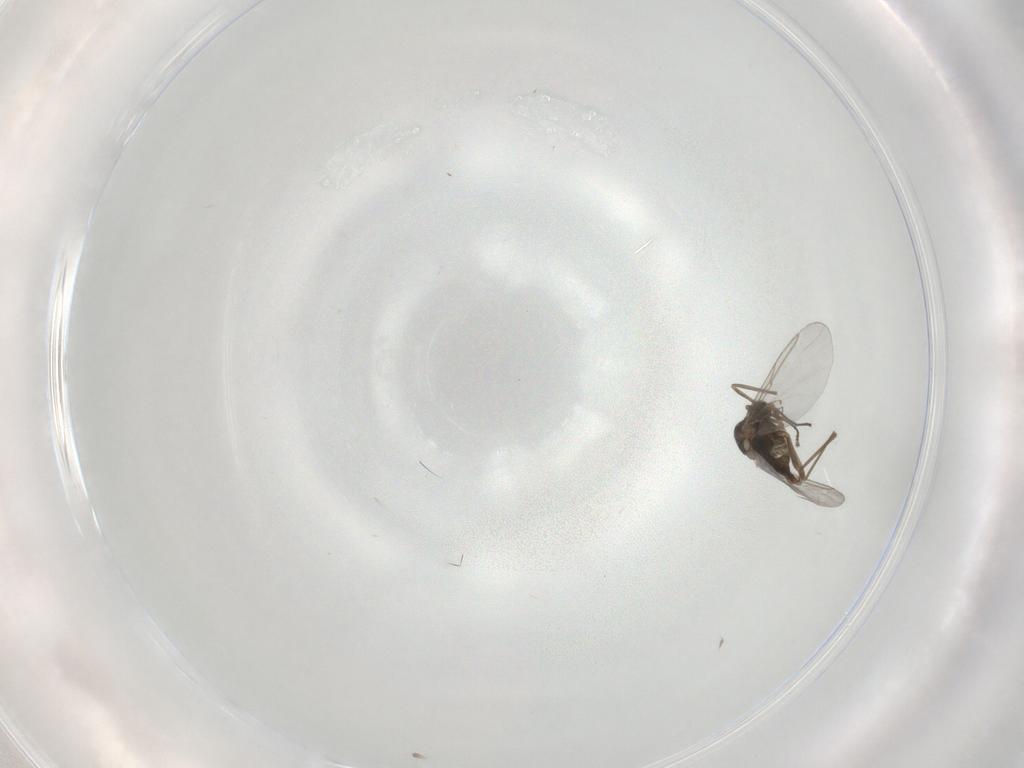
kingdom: Animalia
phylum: Arthropoda
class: Insecta
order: Diptera
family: Cecidomyiidae
